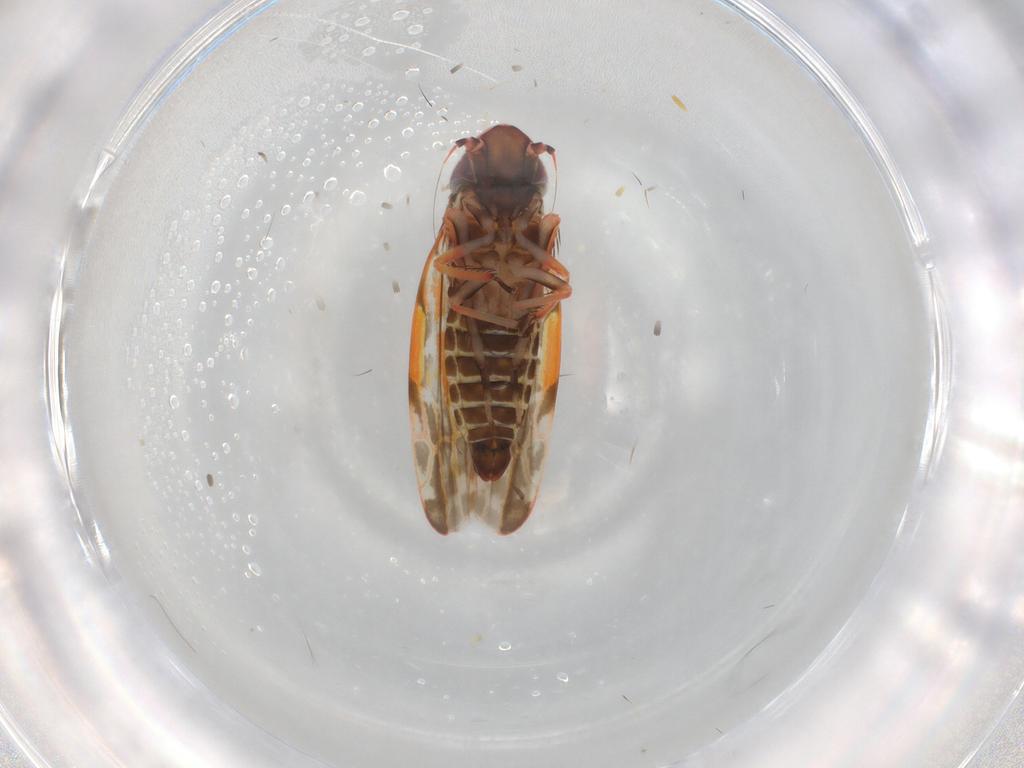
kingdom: Animalia
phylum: Arthropoda
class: Insecta
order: Hemiptera
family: Cicadellidae
